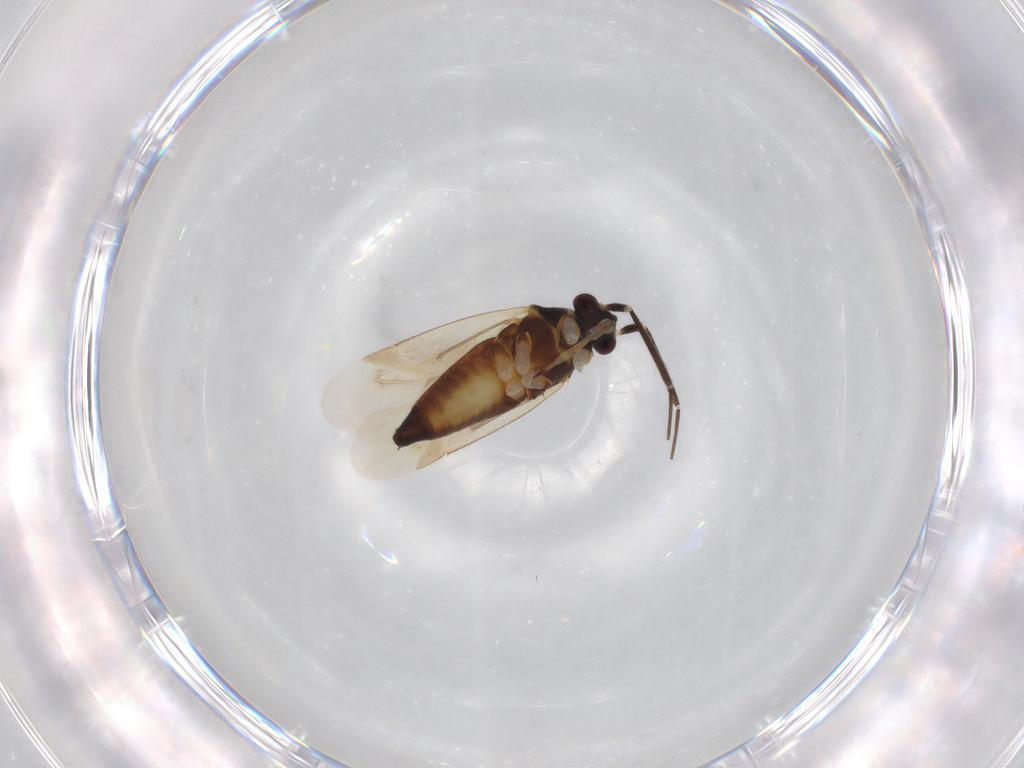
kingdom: Animalia
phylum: Arthropoda
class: Insecta
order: Hemiptera
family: Miridae
